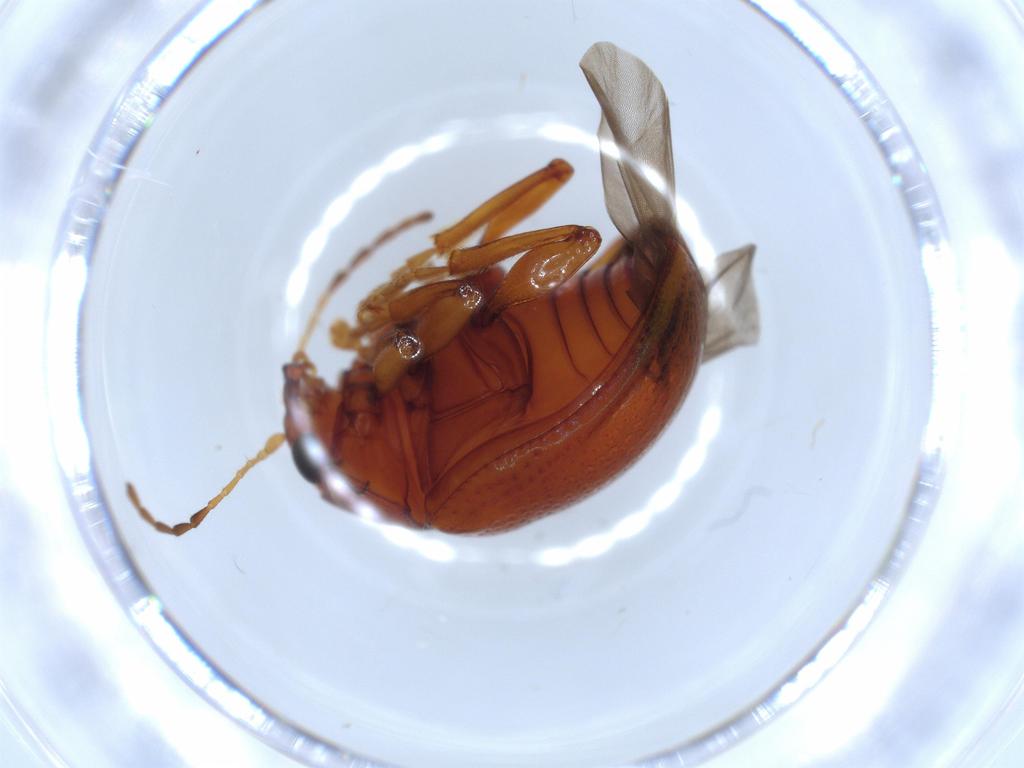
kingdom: Animalia
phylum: Arthropoda
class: Insecta
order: Coleoptera
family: Chrysomelidae
